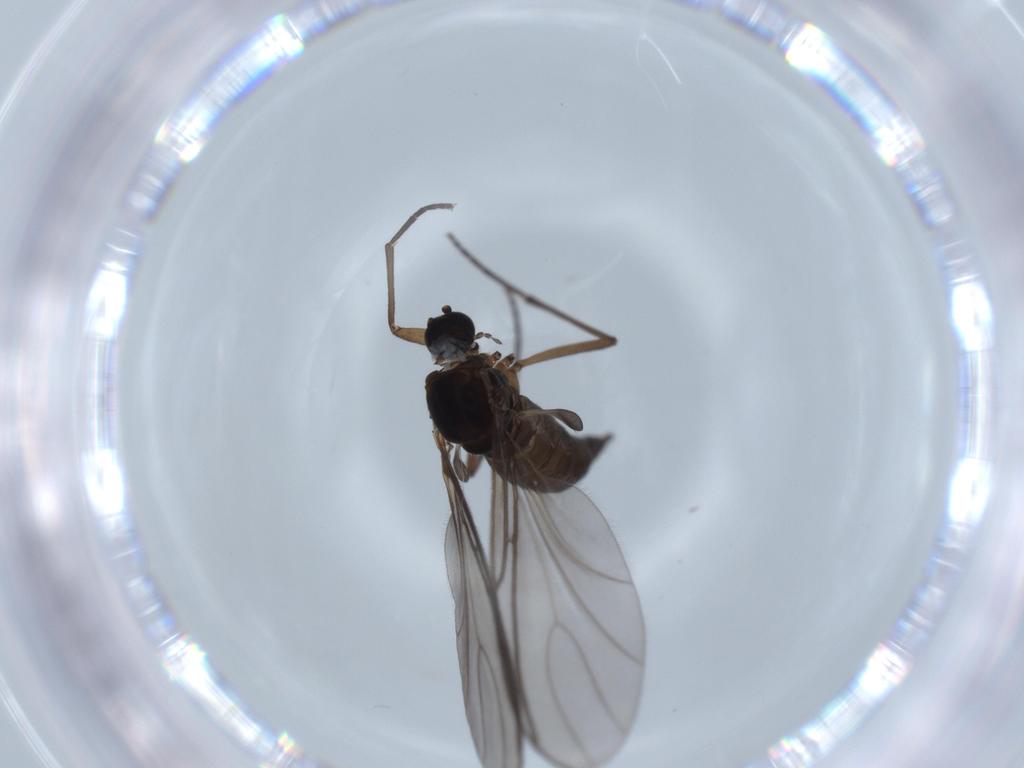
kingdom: Animalia
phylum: Arthropoda
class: Insecta
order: Diptera
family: Sciaridae
